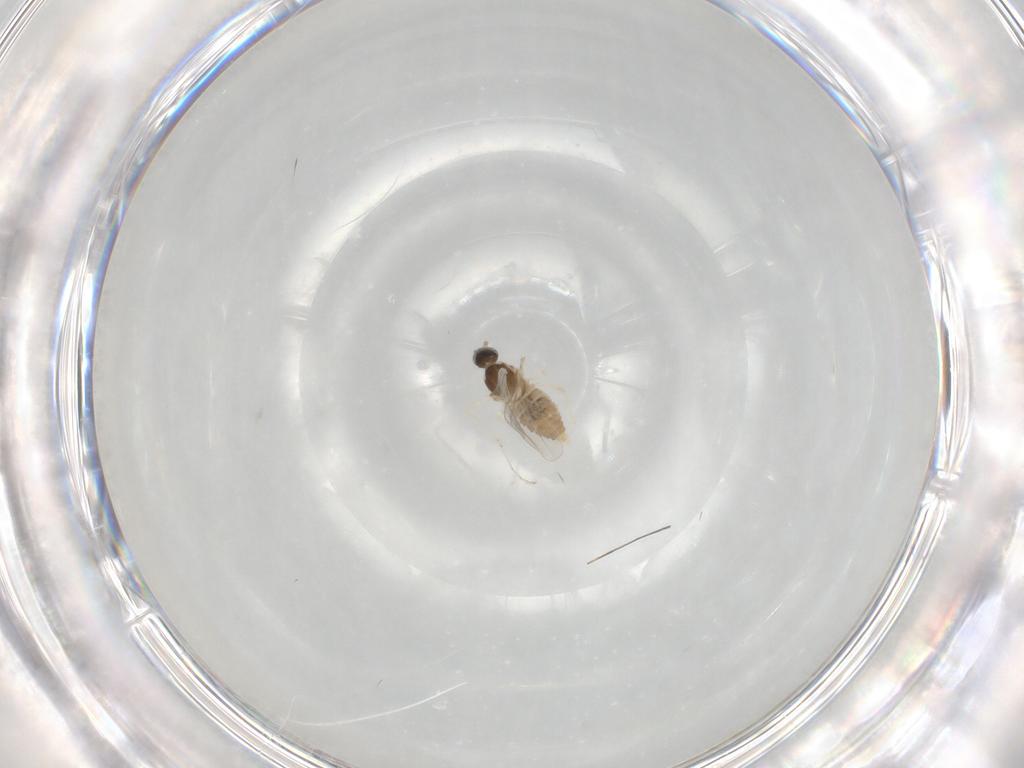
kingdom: Animalia
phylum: Arthropoda
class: Insecta
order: Diptera
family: Cecidomyiidae
